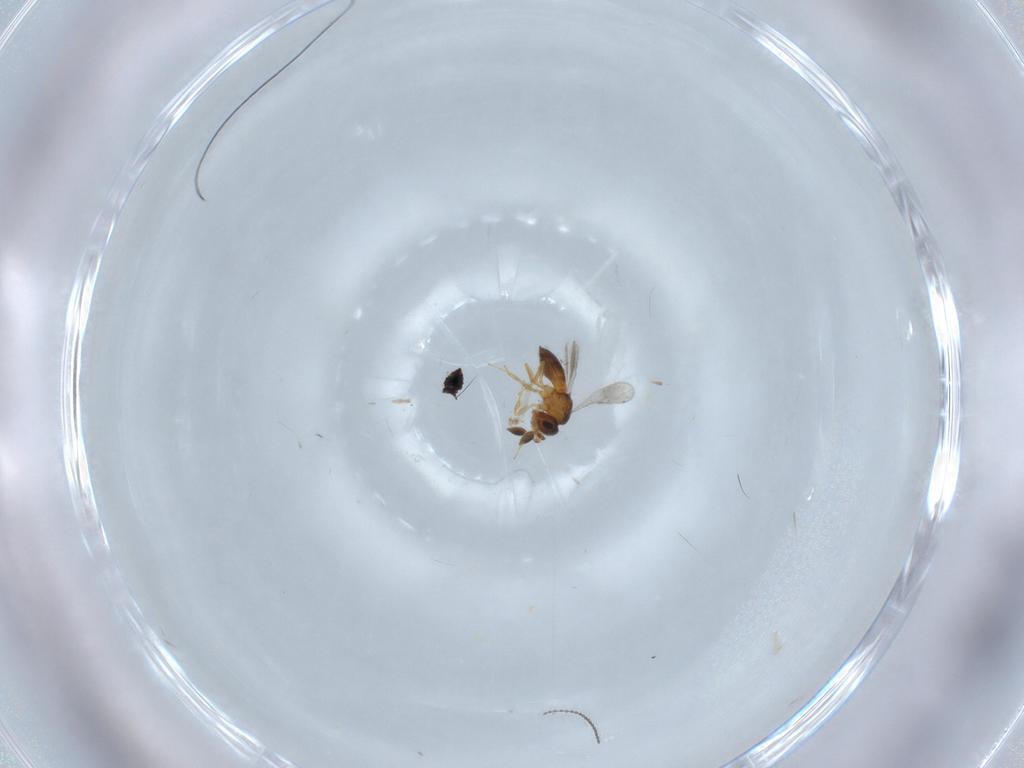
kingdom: Animalia
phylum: Arthropoda
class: Insecta
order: Hymenoptera
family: Scelionidae
